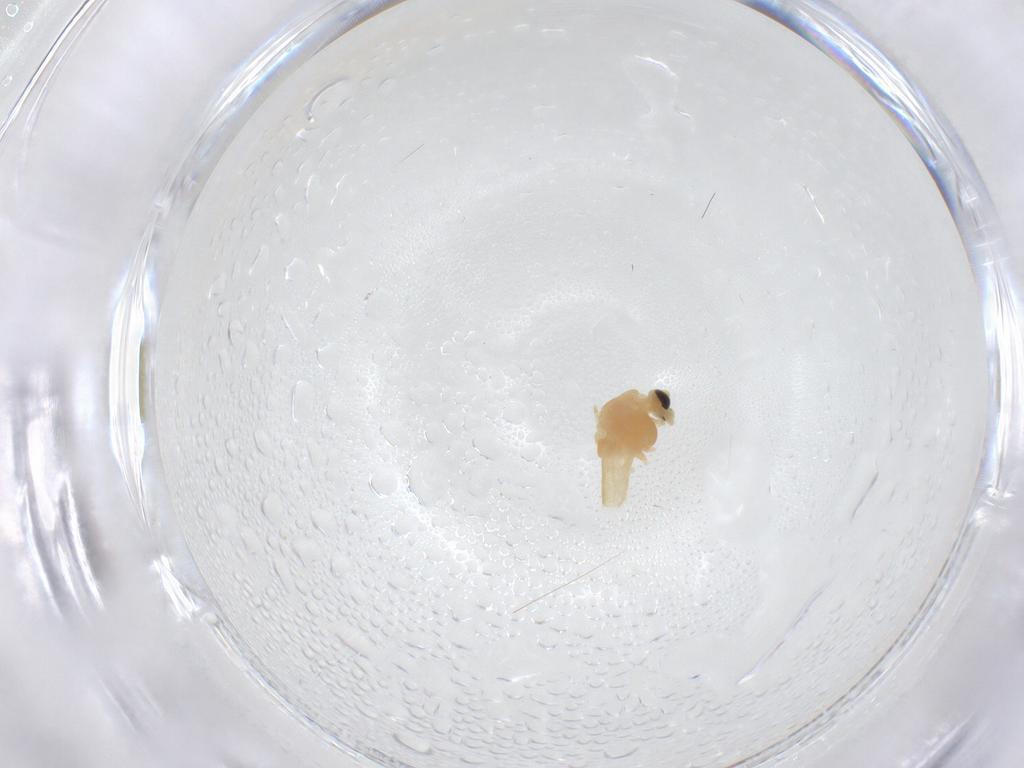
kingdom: Animalia
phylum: Arthropoda
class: Insecta
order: Diptera
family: Chironomidae
